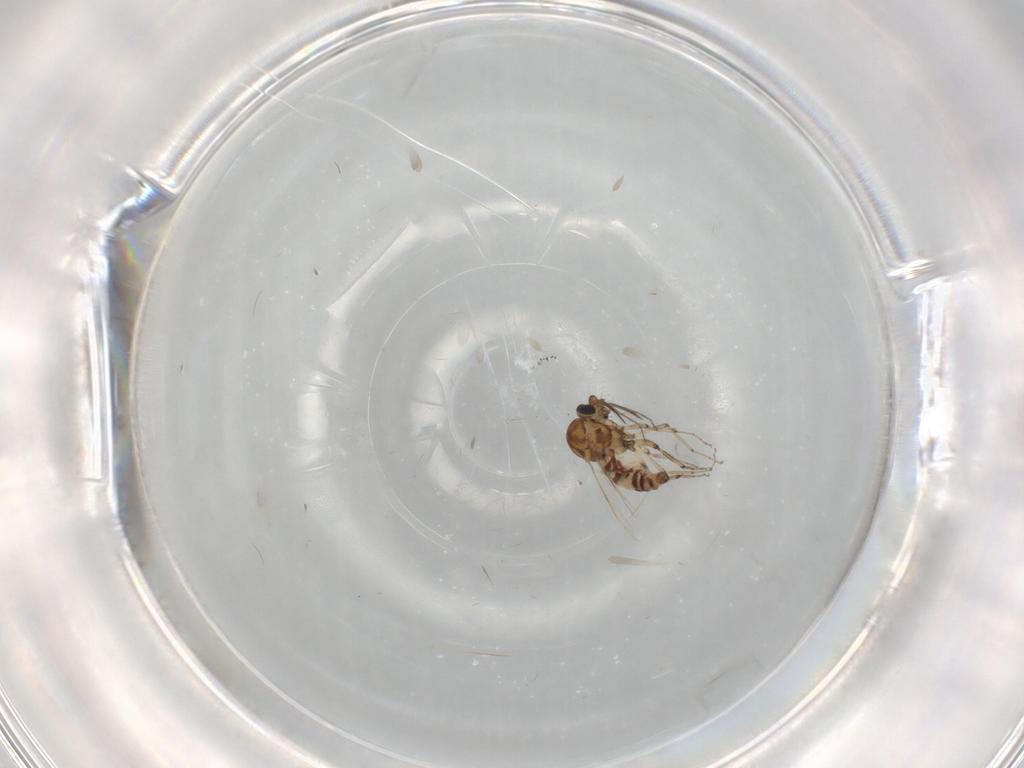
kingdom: Animalia
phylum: Arthropoda
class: Insecta
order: Diptera
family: Ceratopogonidae
